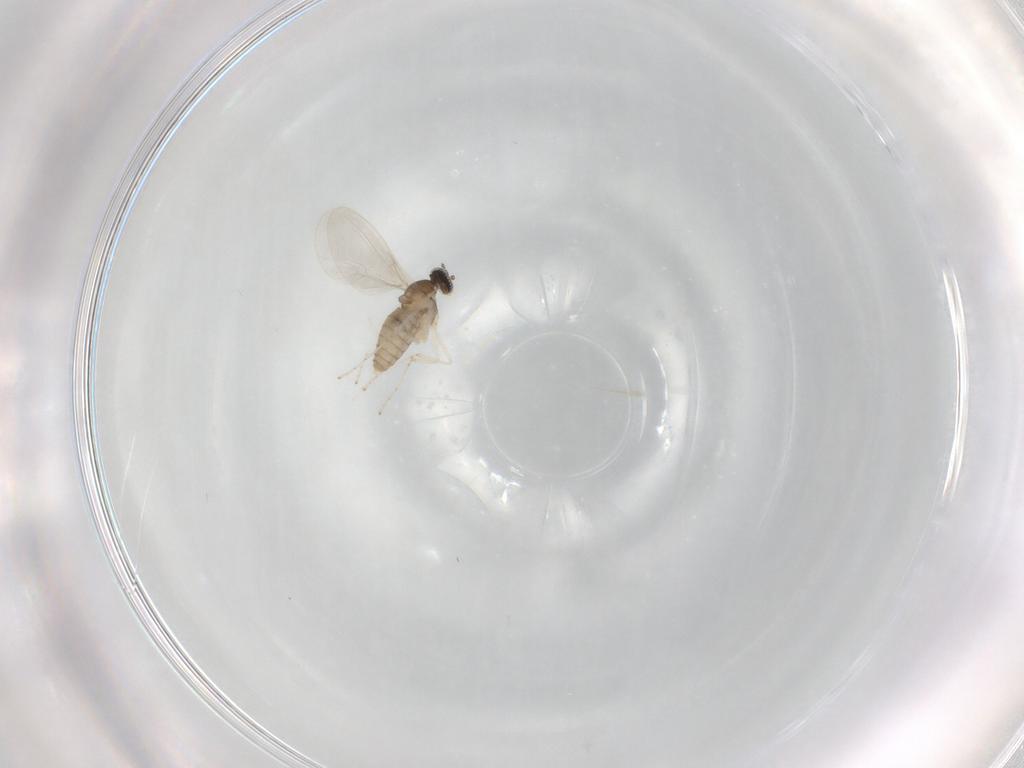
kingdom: Animalia
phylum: Arthropoda
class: Insecta
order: Diptera
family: Cecidomyiidae
